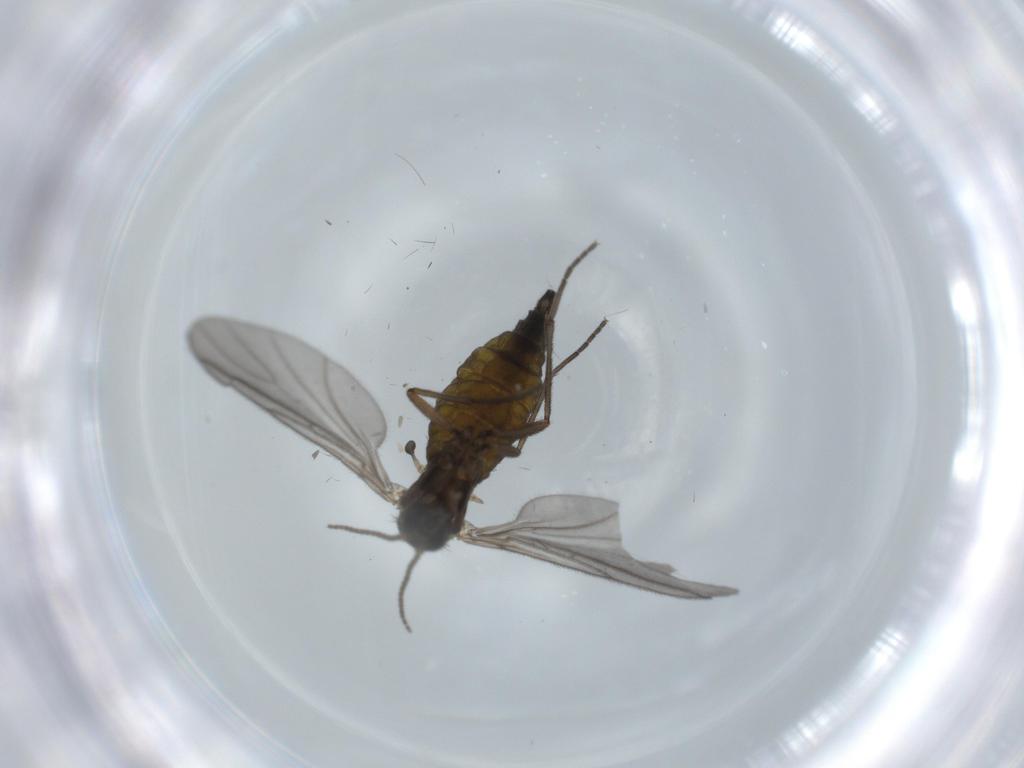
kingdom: Animalia
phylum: Arthropoda
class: Insecta
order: Diptera
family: Sciaridae
